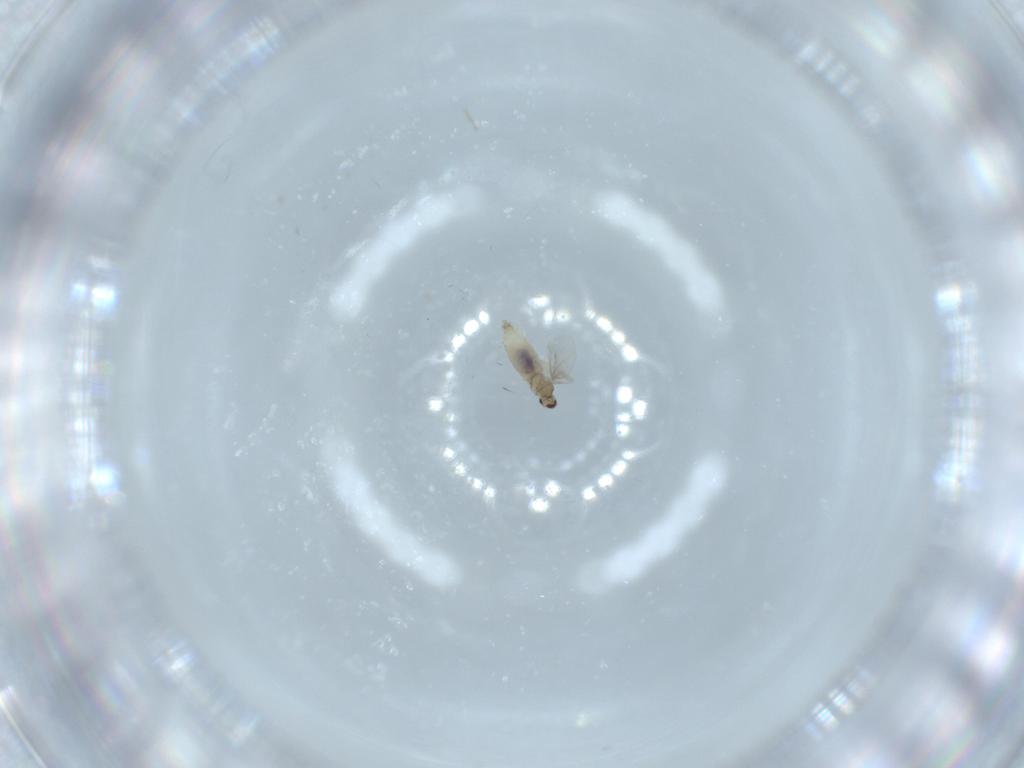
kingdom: Animalia
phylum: Arthropoda
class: Insecta
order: Diptera
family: Cecidomyiidae
